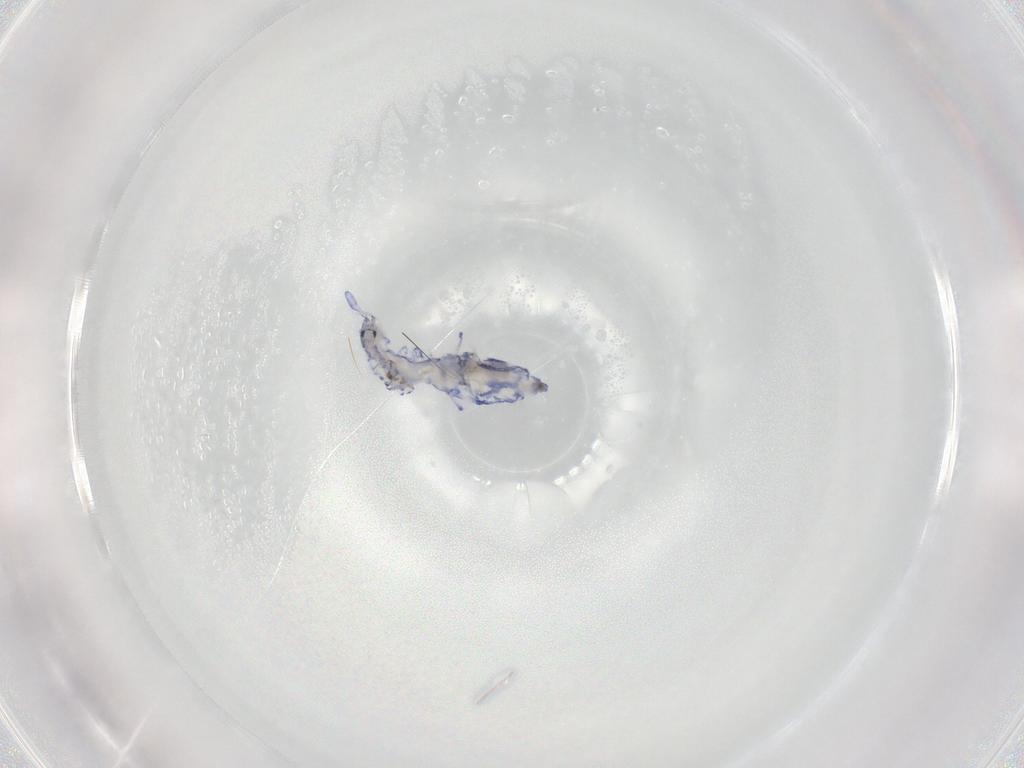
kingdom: Animalia
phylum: Arthropoda
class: Collembola
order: Entomobryomorpha
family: Entomobryidae
